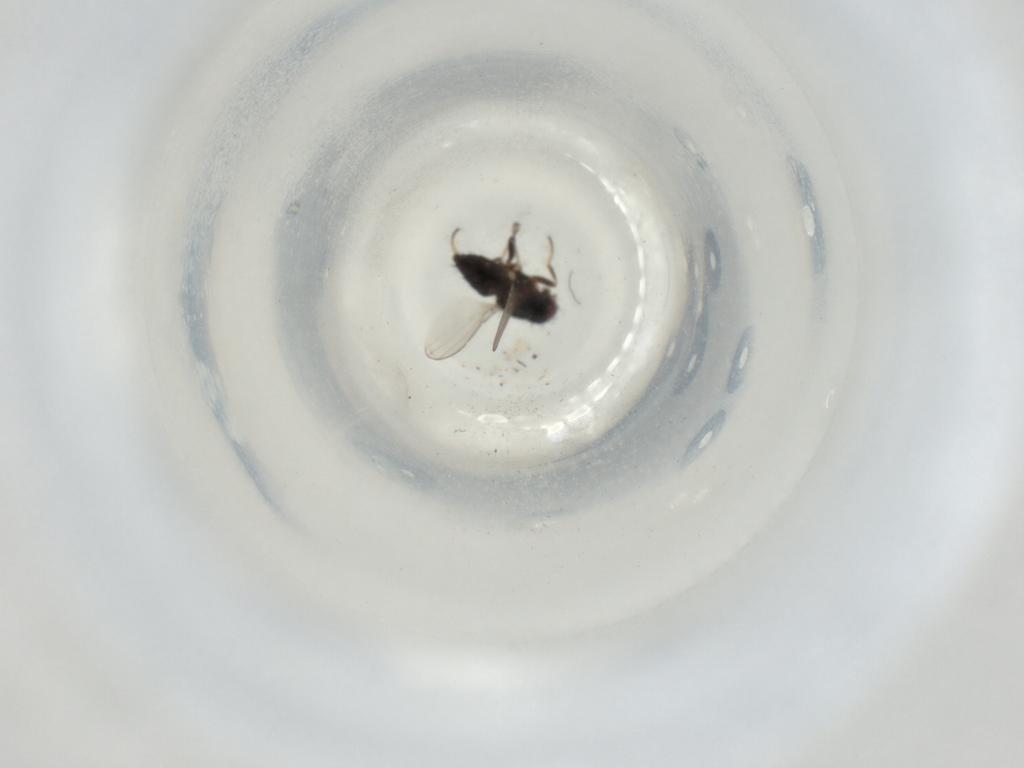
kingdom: Animalia
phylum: Arthropoda
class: Insecta
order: Diptera
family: Milichiidae
